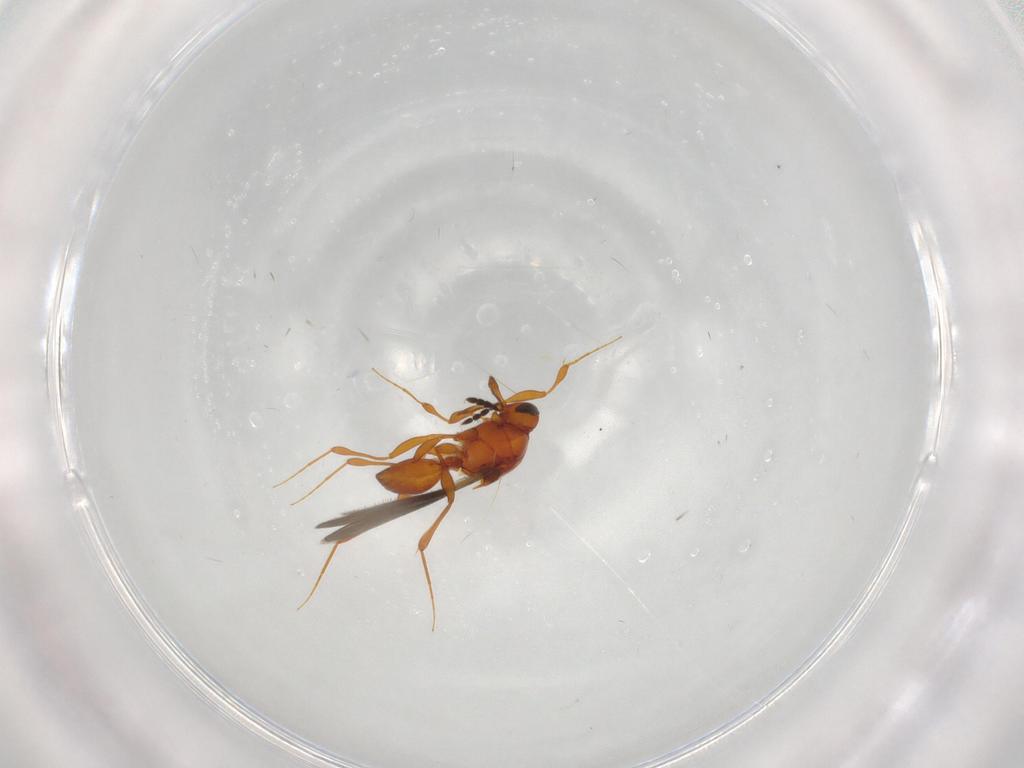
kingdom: Animalia
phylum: Arthropoda
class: Insecta
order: Hymenoptera
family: Platygastridae
